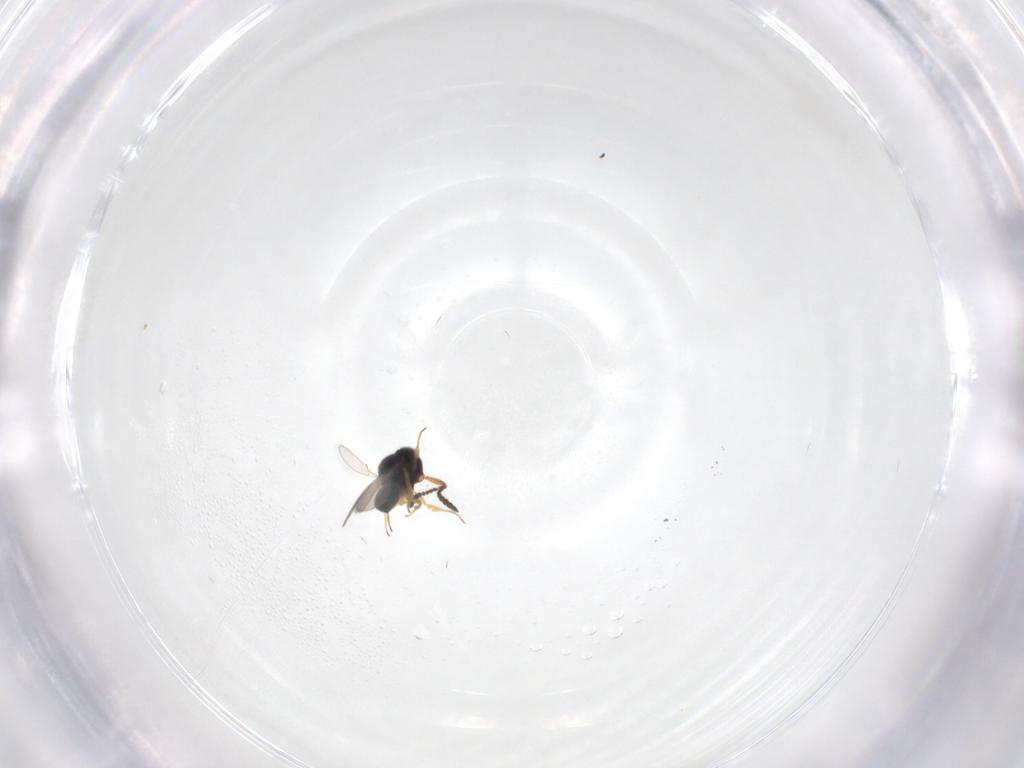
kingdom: Animalia
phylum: Arthropoda
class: Insecta
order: Hymenoptera
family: Scelionidae
